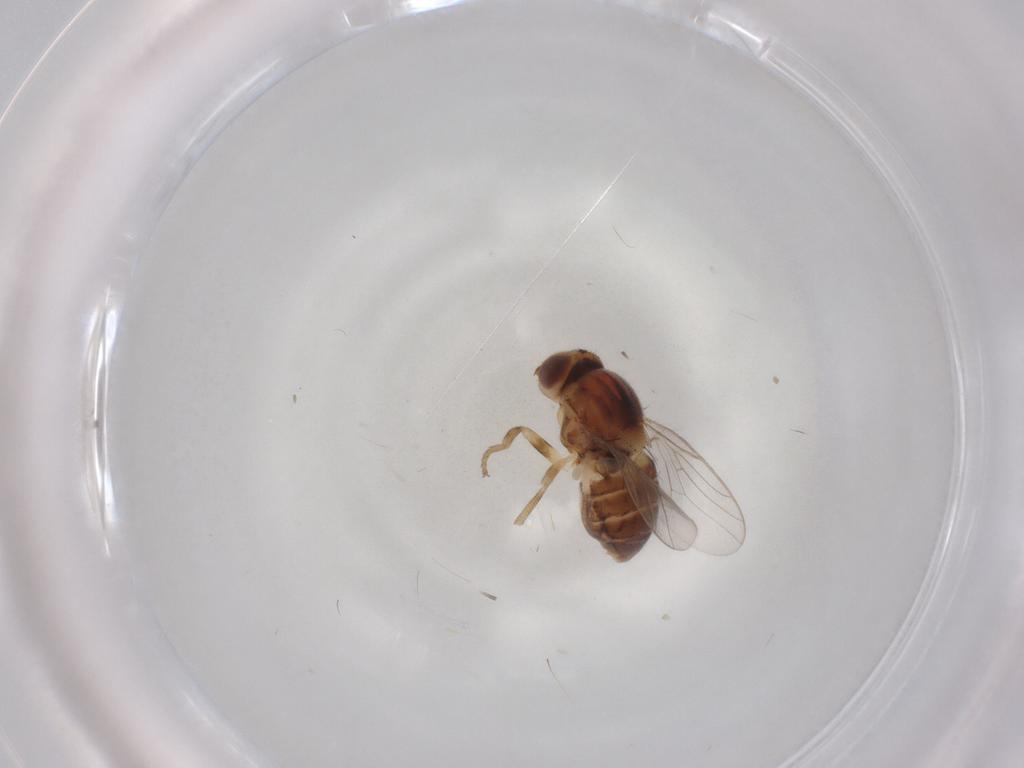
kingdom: Animalia
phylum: Arthropoda
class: Insecta
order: Diptera
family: Chloropidae
